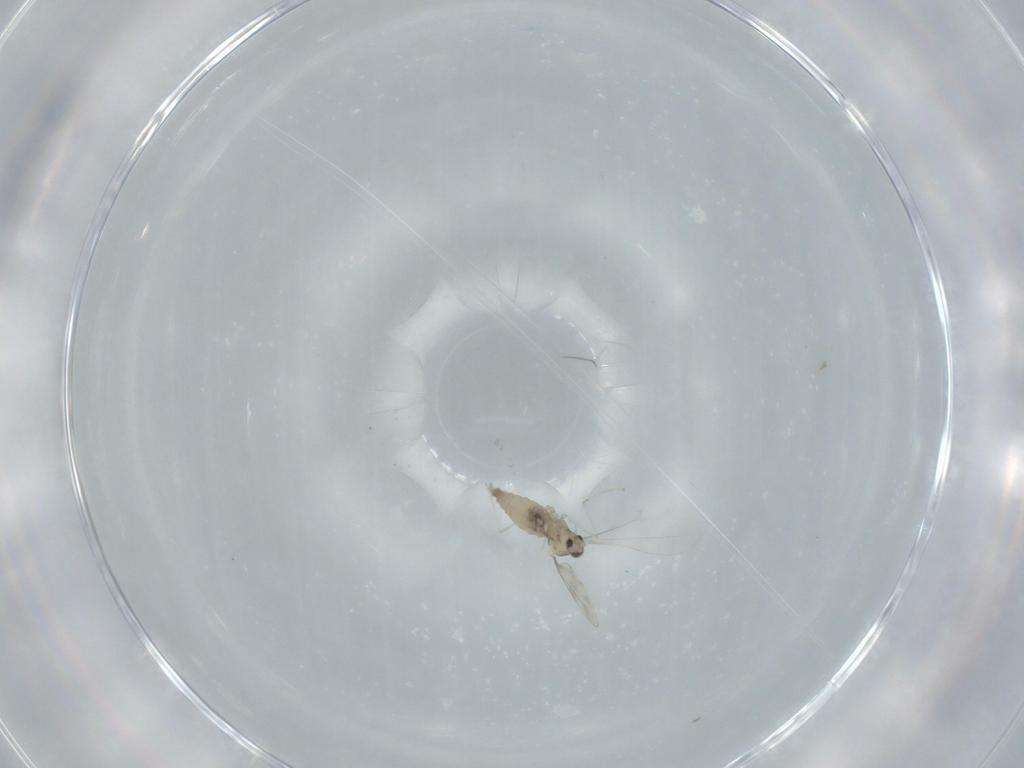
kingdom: Animalia
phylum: Arthropoda
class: Insecta
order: Diptera
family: Cecidomyiidae
